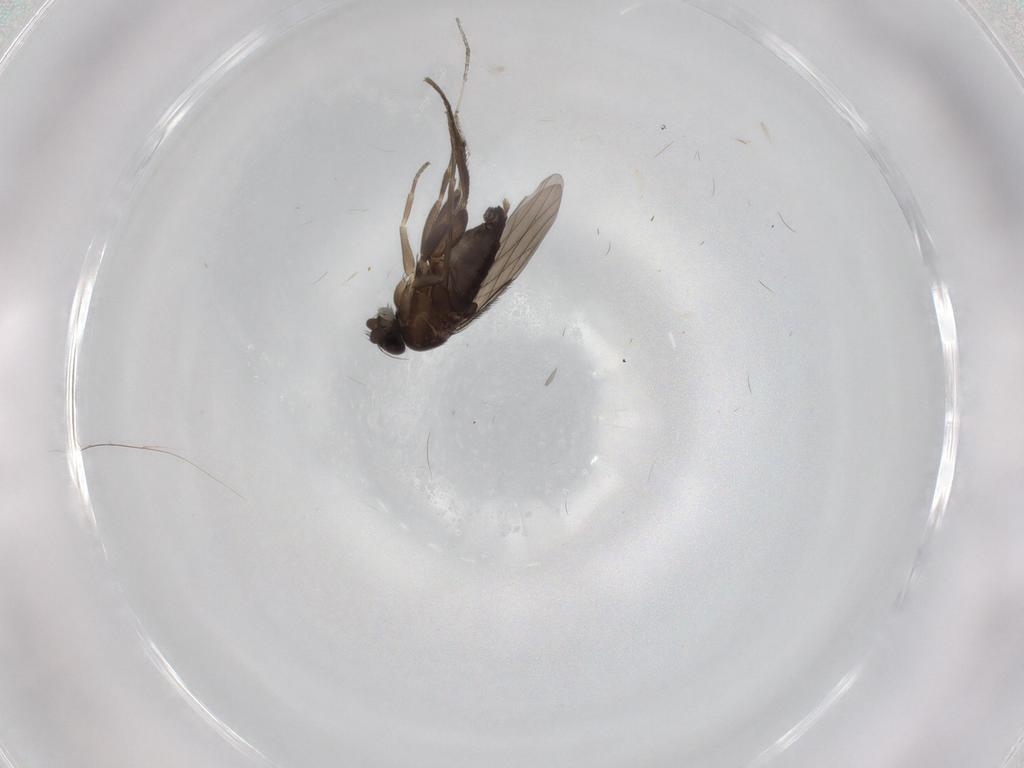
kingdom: Animalia
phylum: Arthropoda
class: Insecta
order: Diptera
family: Phoridae
